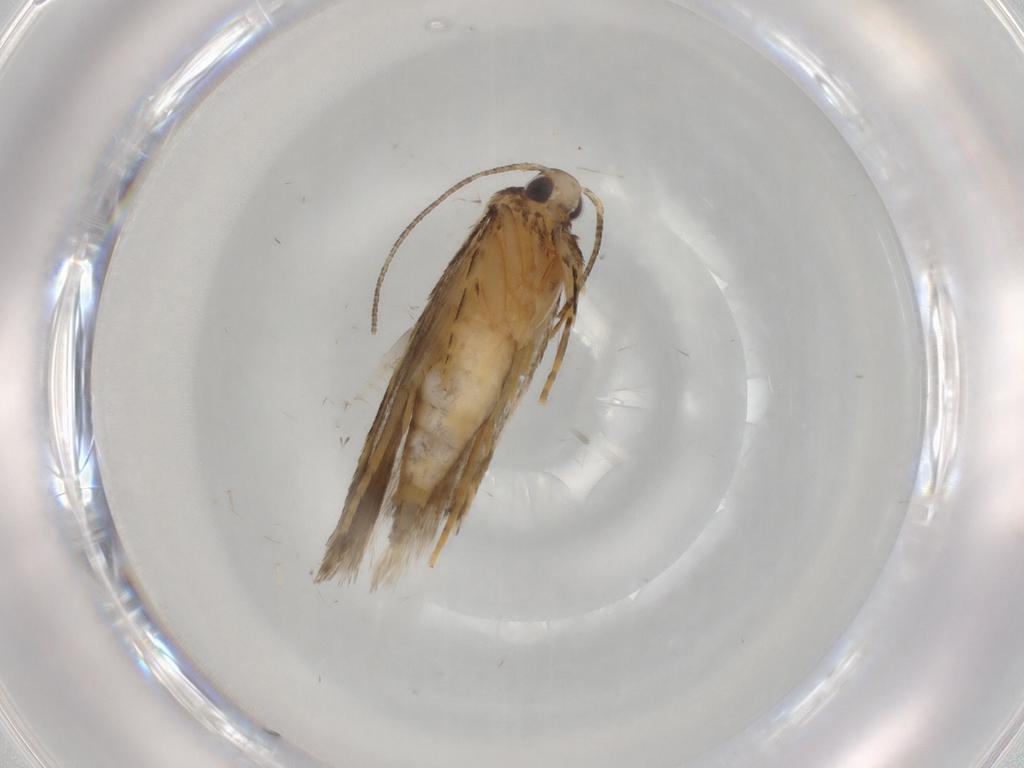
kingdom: Animalia
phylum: Arthropoda
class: Insecta
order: Lepidoptera
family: Autostichidae
